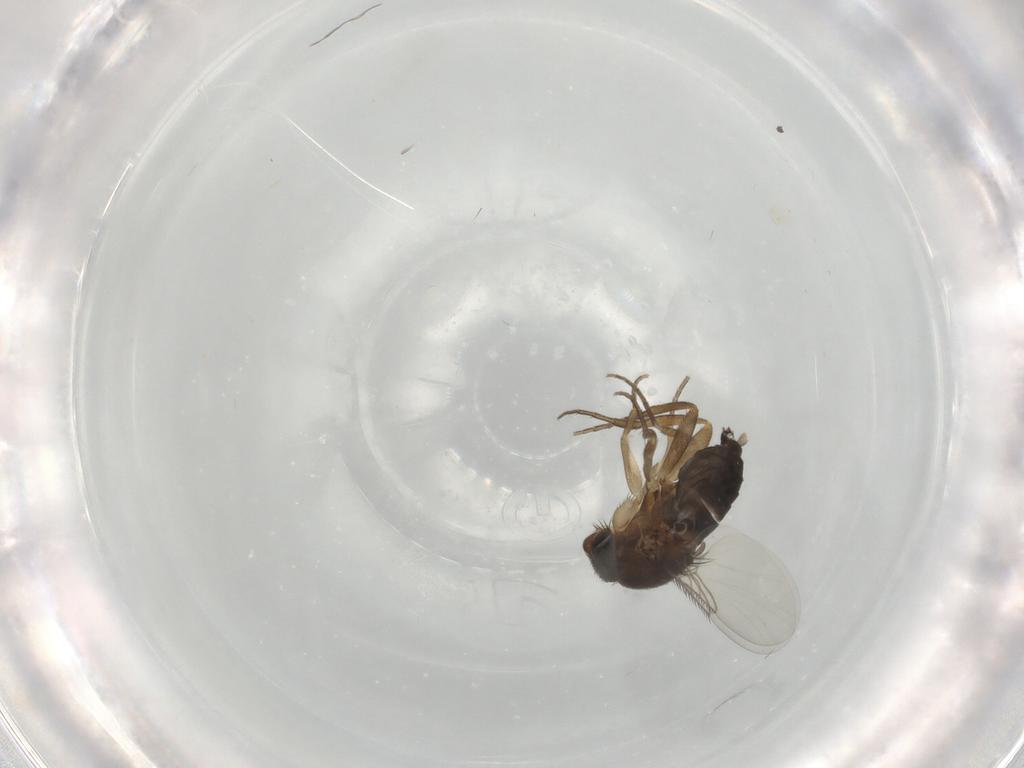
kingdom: Animalia
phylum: Arthropoda
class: Insecta
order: Diptera
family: Phoridae
